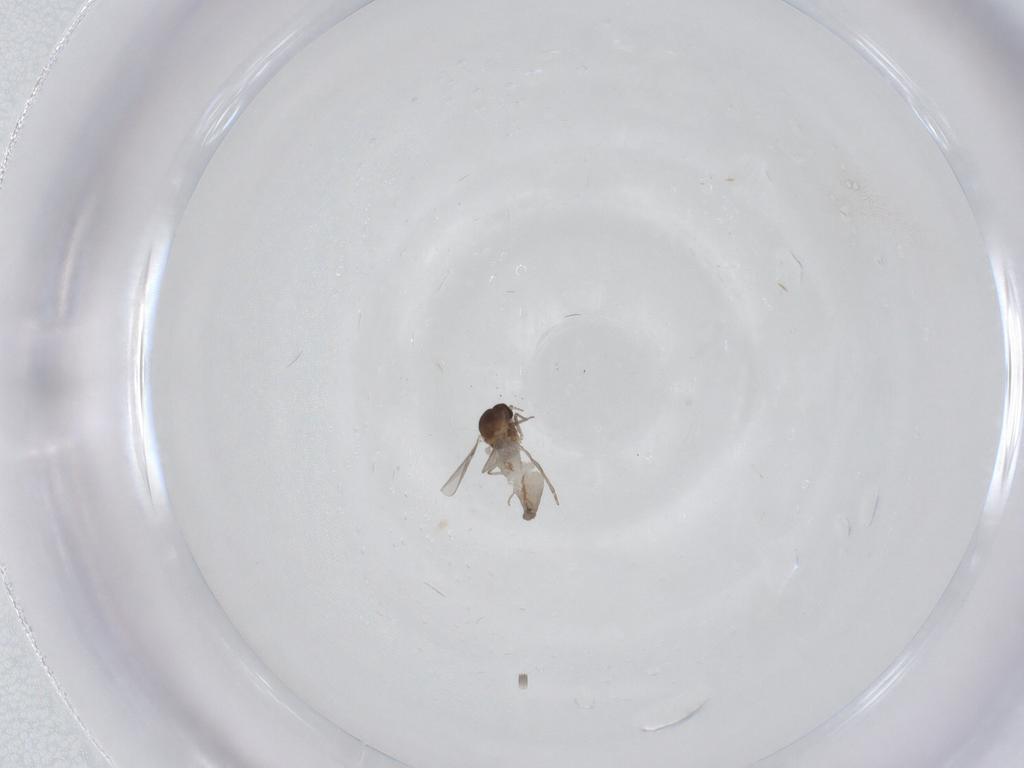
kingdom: Animalia
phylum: Arthropoda
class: Insecta
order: Diptera
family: Ceratopogonidae
